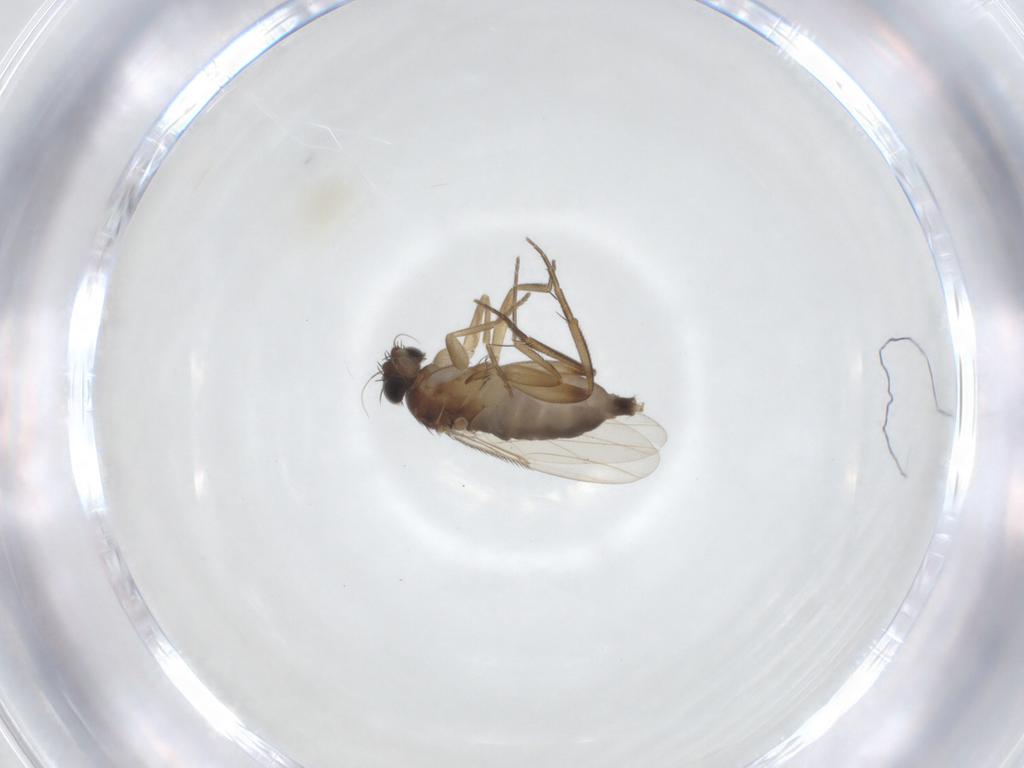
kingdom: Animalia
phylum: Arthropoda
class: Insecta
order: Diptera
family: Phoridae
